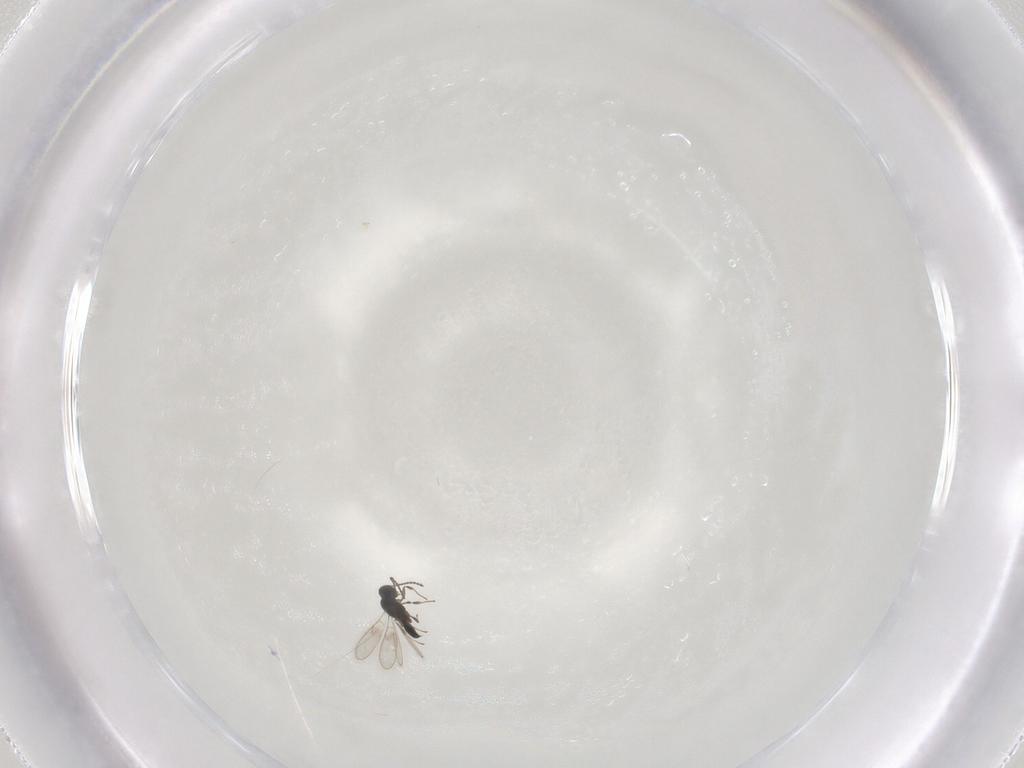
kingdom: Animalia
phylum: Arthropoda
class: Insecta
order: Hymenoptera
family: Scelionidae
